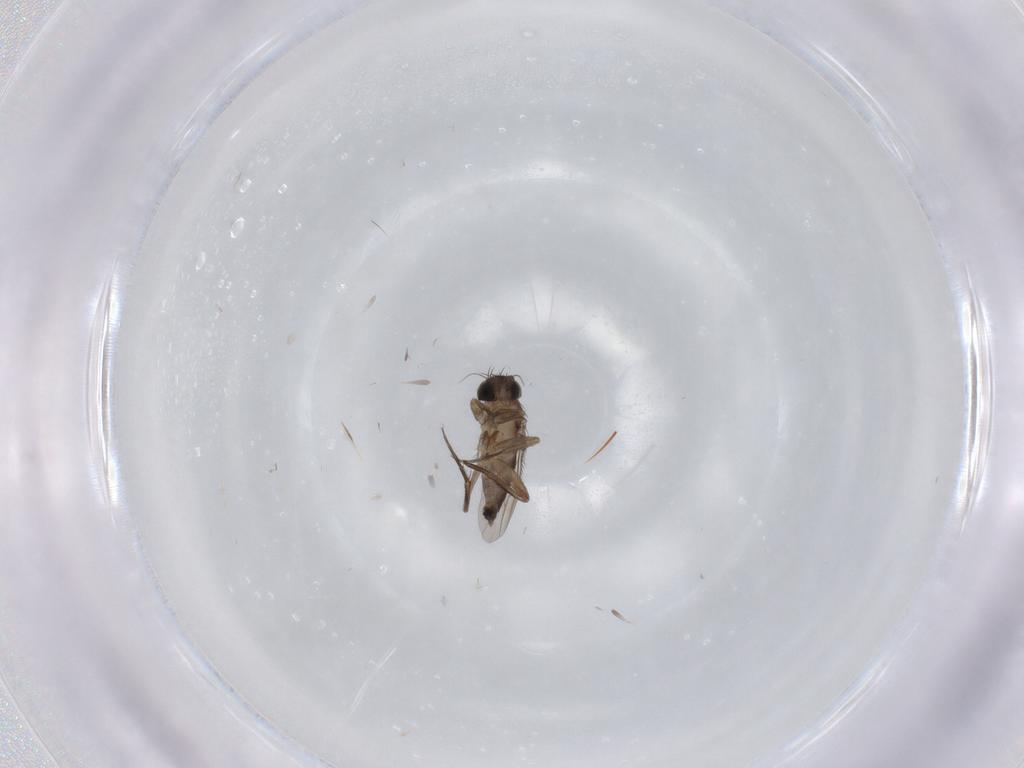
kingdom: Animalia
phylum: Arthropoda
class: Insecta
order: Diptera
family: Phoridae
